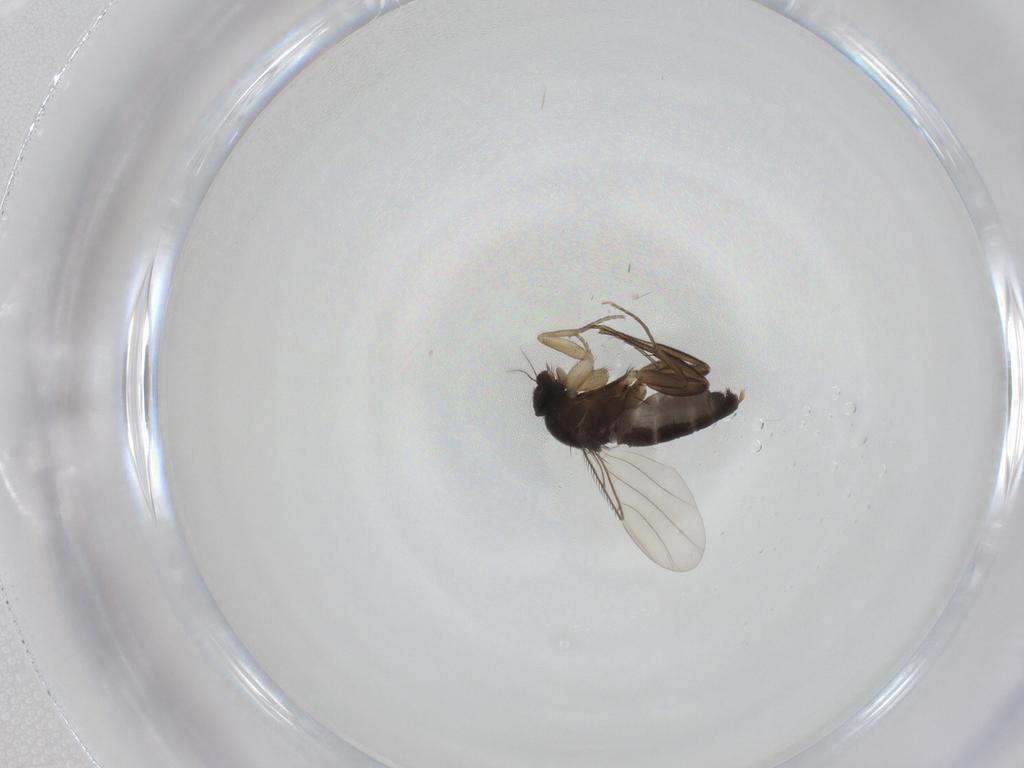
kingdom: Animalia
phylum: Arthropoda
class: Insecta
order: Diptera
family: Phoridae
